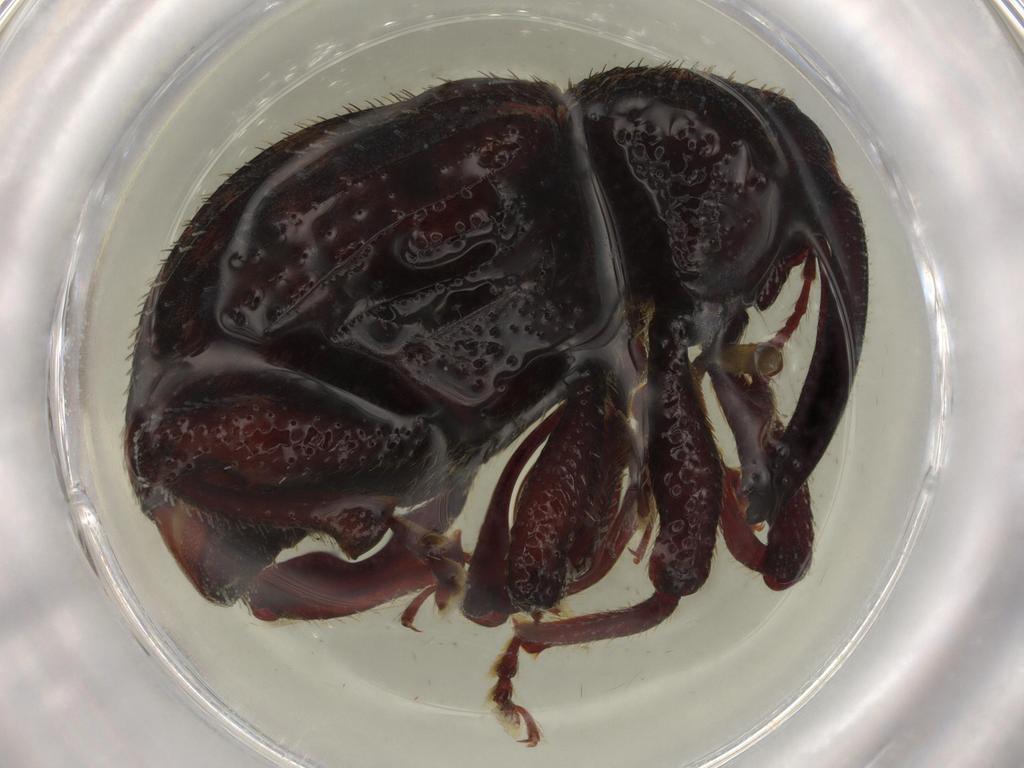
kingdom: Animalia
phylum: Arthropoda
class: Insecta
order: Coleoptera
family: Curculionidae
